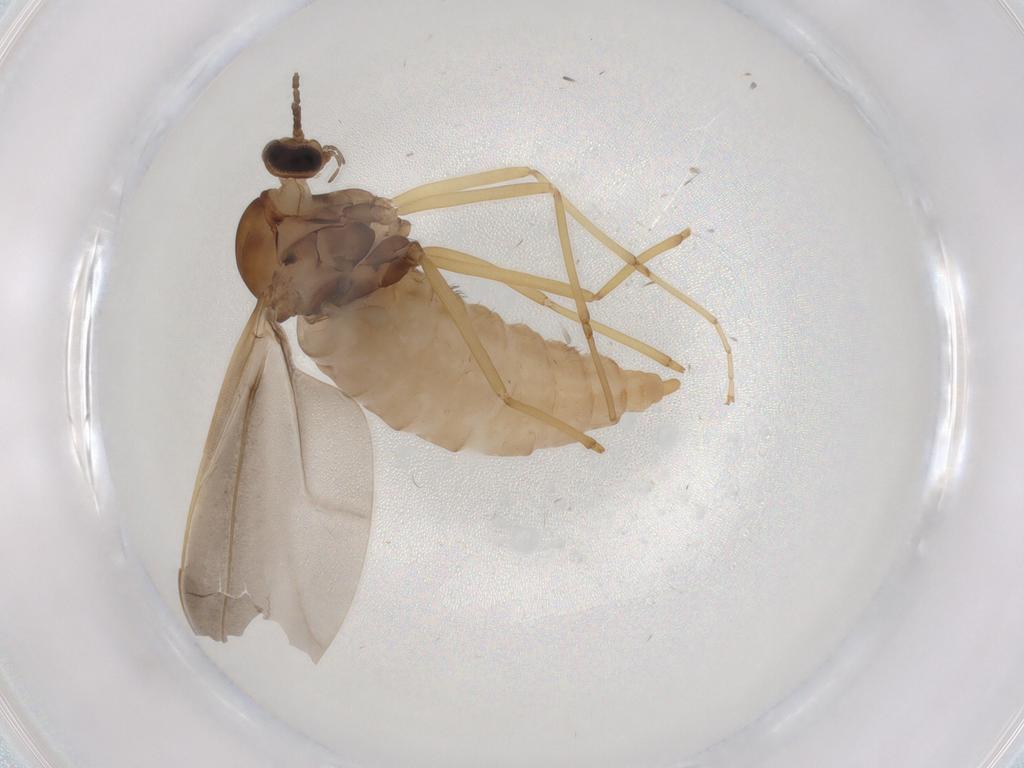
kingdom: Animalia
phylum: Arthropoda
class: Insecta
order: Diptera
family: Cecidomyiidae
